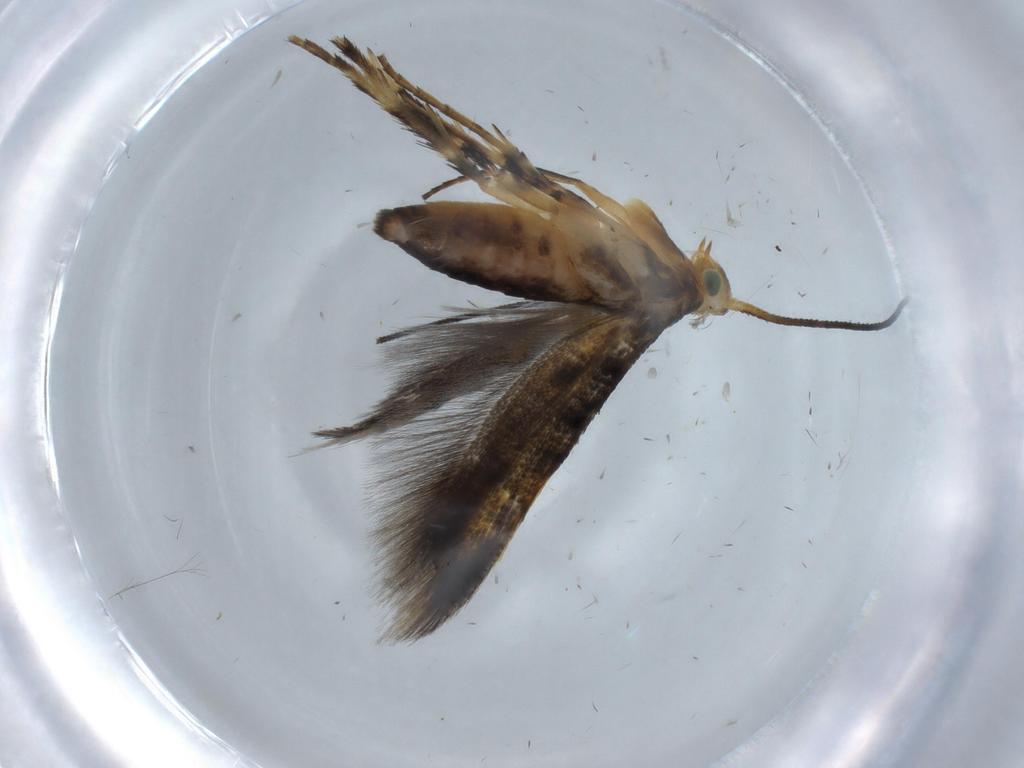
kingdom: Animalia
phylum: Arthropoda
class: Insecta
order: Lepidoptera
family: Heliodinidae
